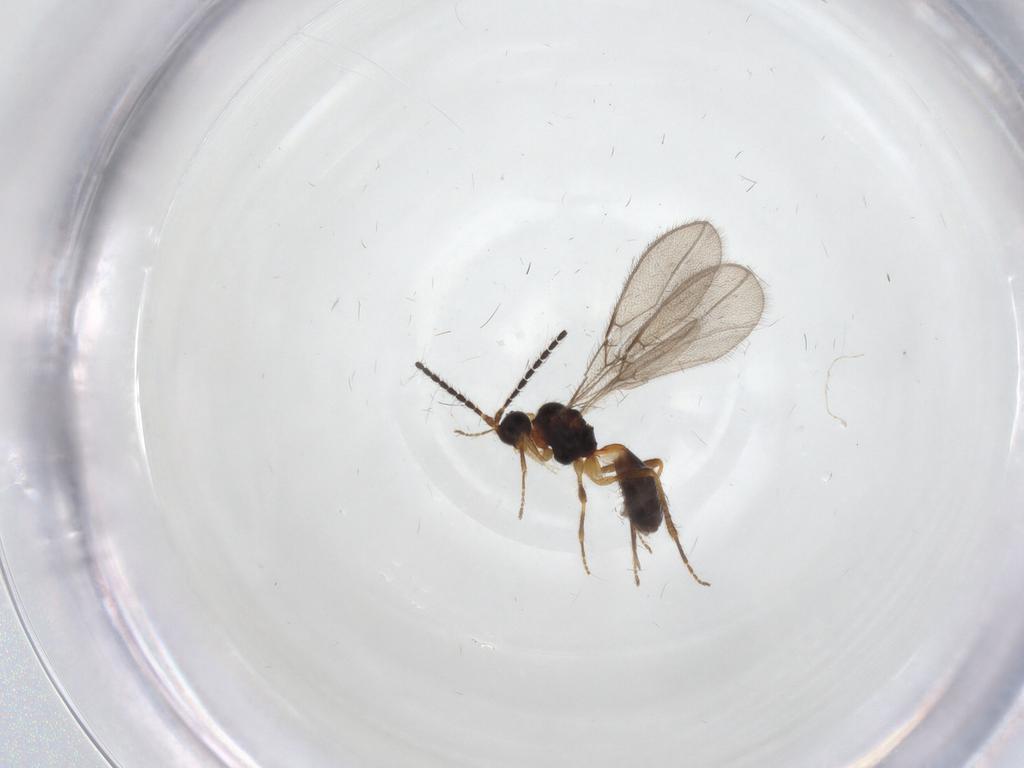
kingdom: Animalia
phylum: Arthropoda
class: Insecta
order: Hymenoptera
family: Braconidae
